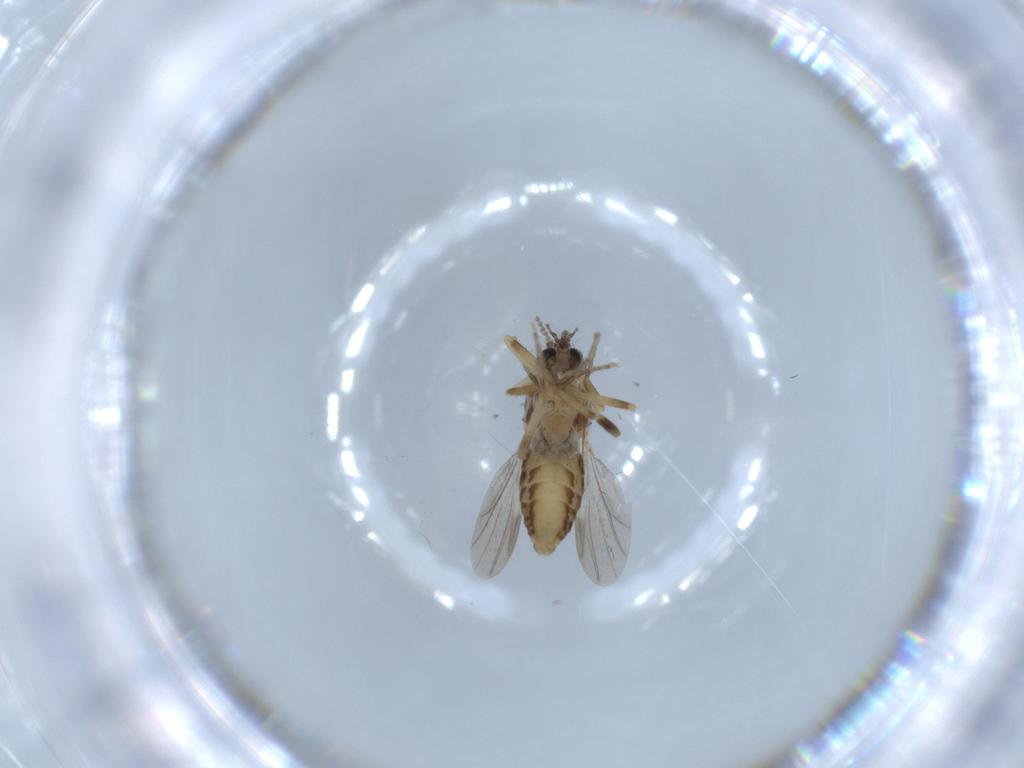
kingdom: Animalia
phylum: Arthropoda
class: Insecta
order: Diptera
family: Ceratopogonidae
